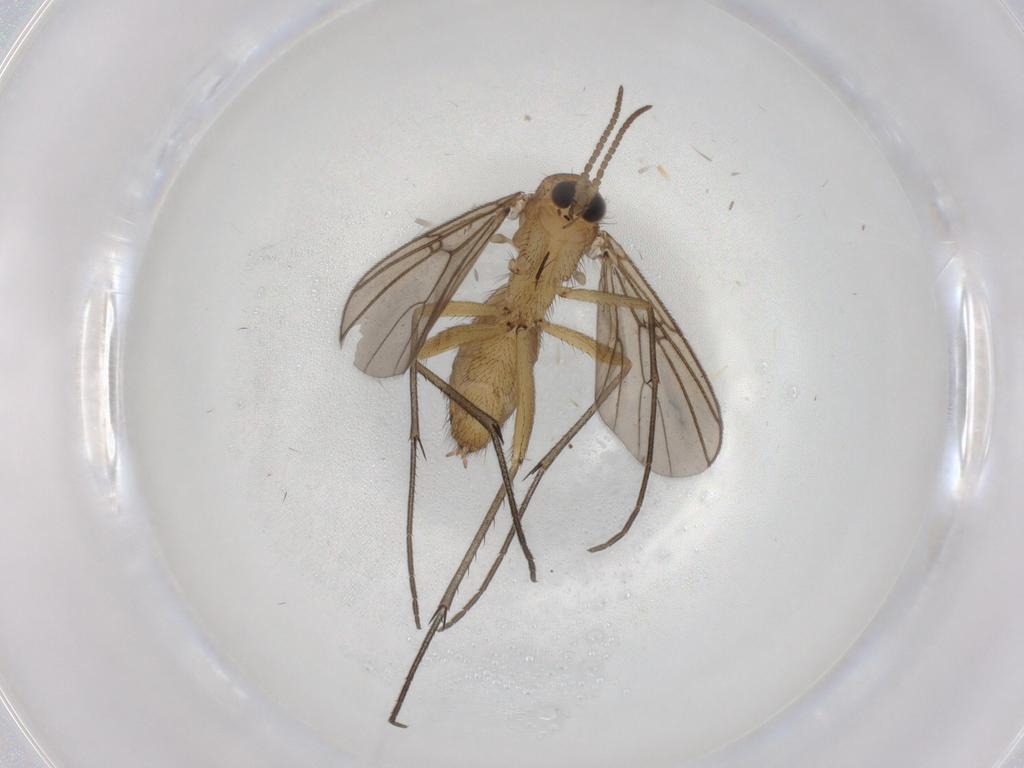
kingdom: Animalia
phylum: Arthropoda
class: Insecta
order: Diptera
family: Mycetophilidae
